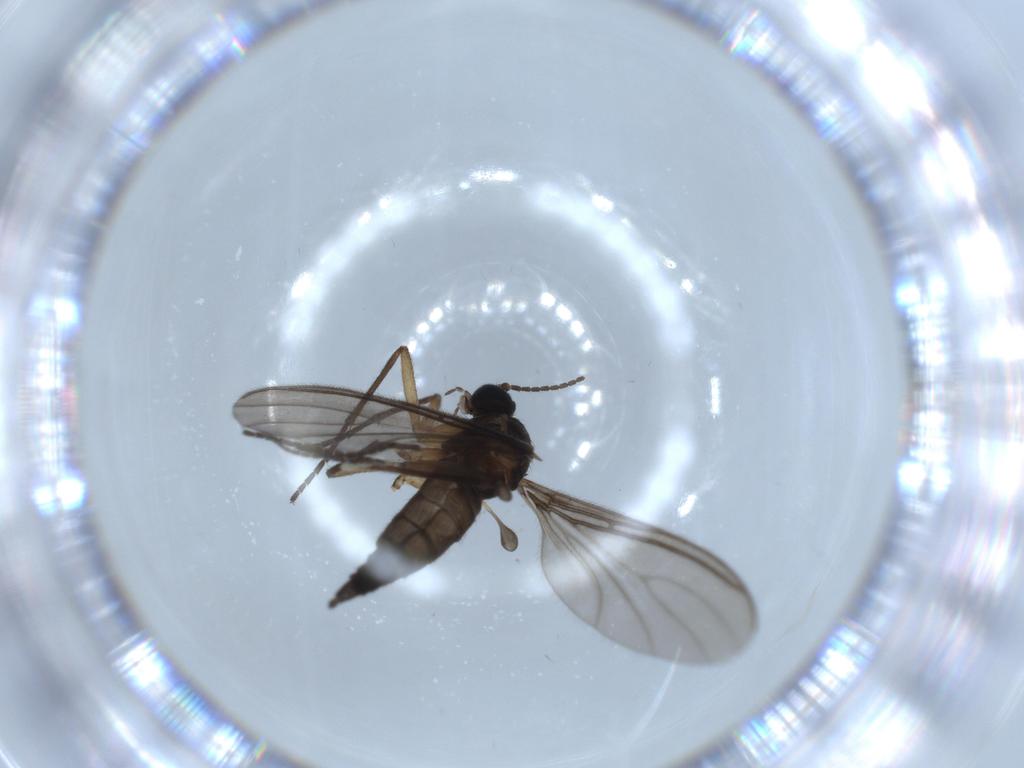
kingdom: Animalia
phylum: Arthropoda
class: Insecta
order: Diptera
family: Sciaridae
